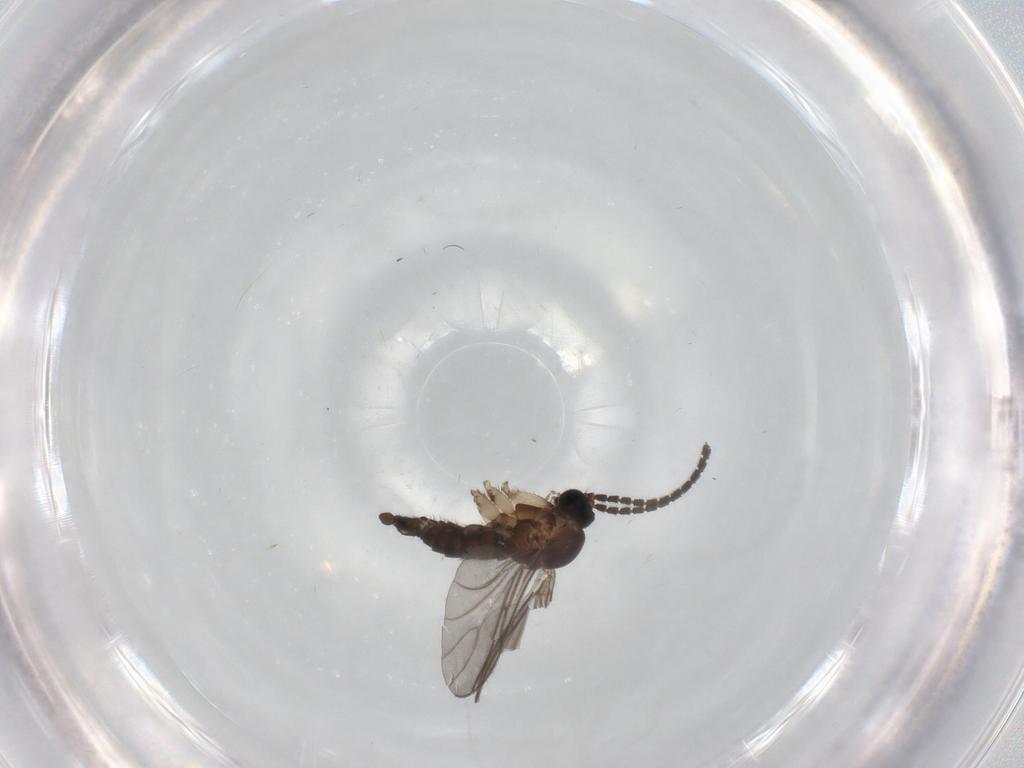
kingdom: Animalia
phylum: Arthropoda
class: Insecta
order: Diptera
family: Sciaridae
